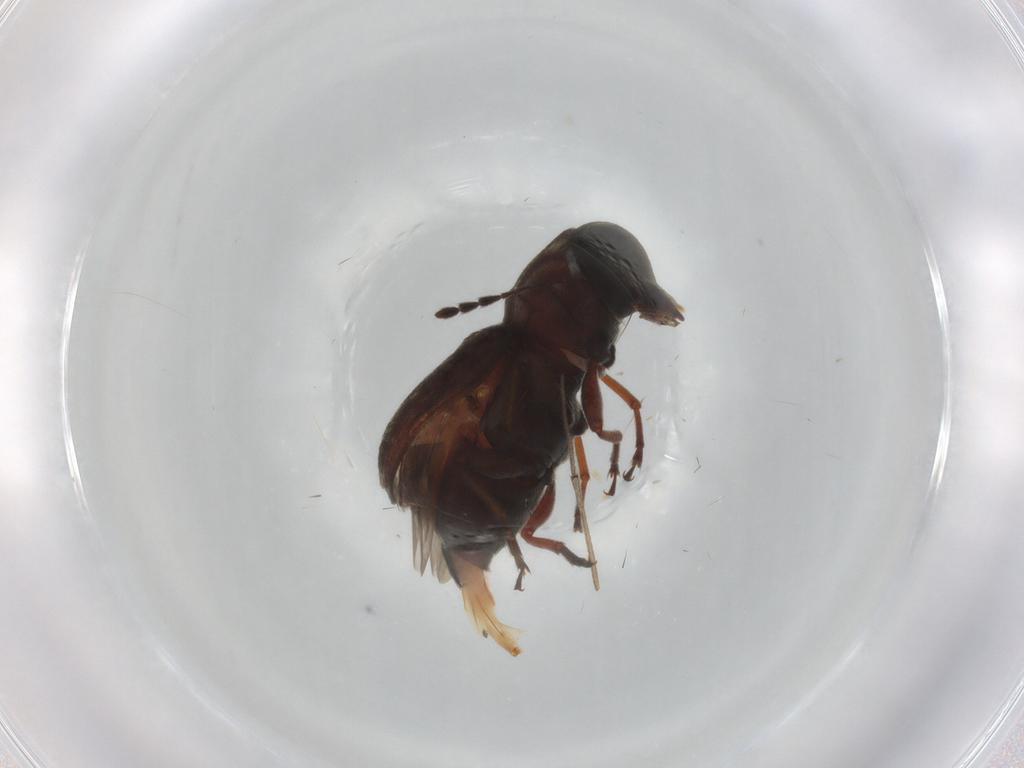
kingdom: Animalia
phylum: Arthropoda
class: Insecta
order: Coleoptera
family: Anthribidae
